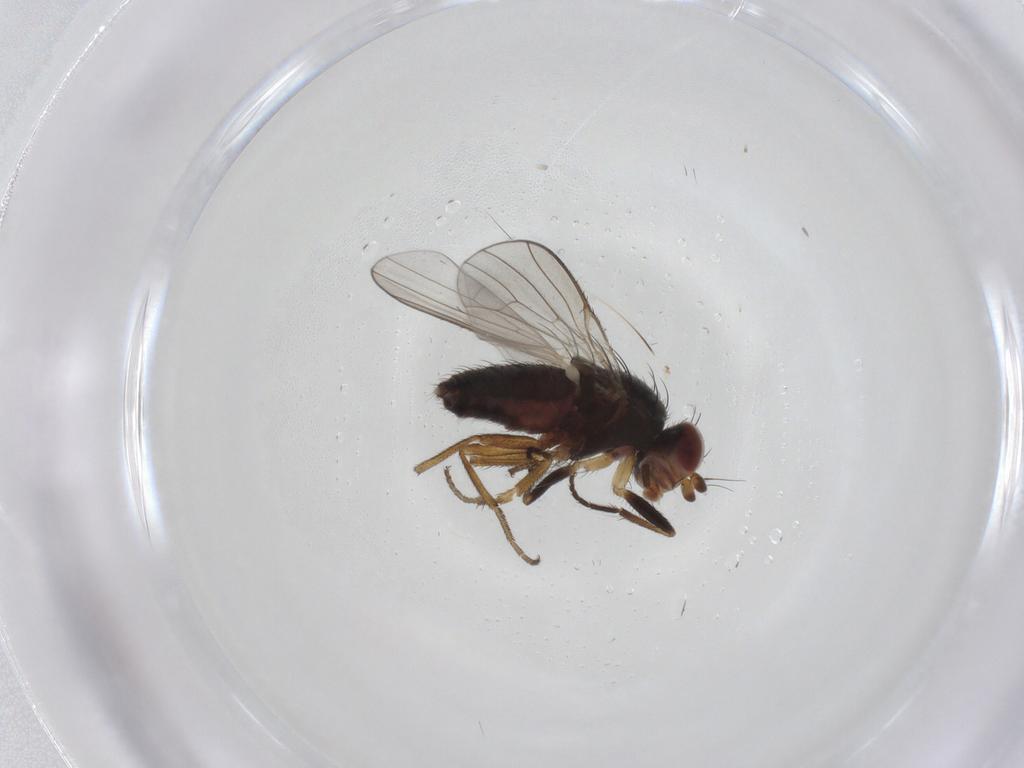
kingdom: Animalia
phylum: Arthropoda
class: Insecta
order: Diptera
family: Heleomyzidae
